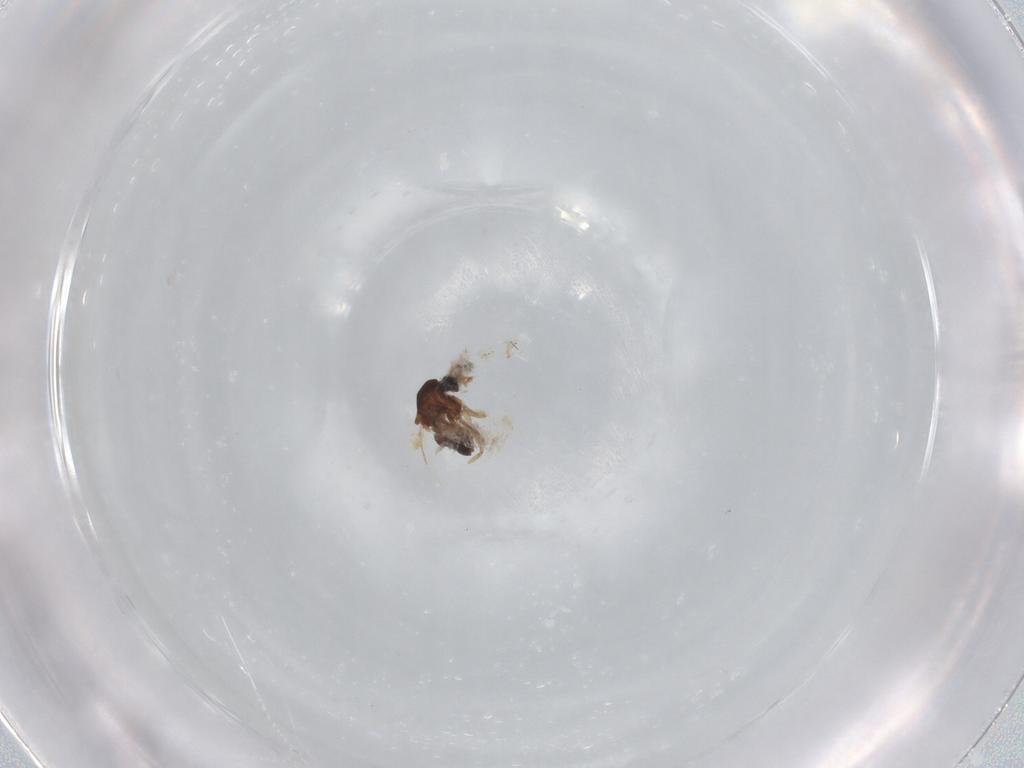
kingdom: Animalia
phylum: Arthropoda
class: Insecta
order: Diptera
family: Ceratopogonidae
